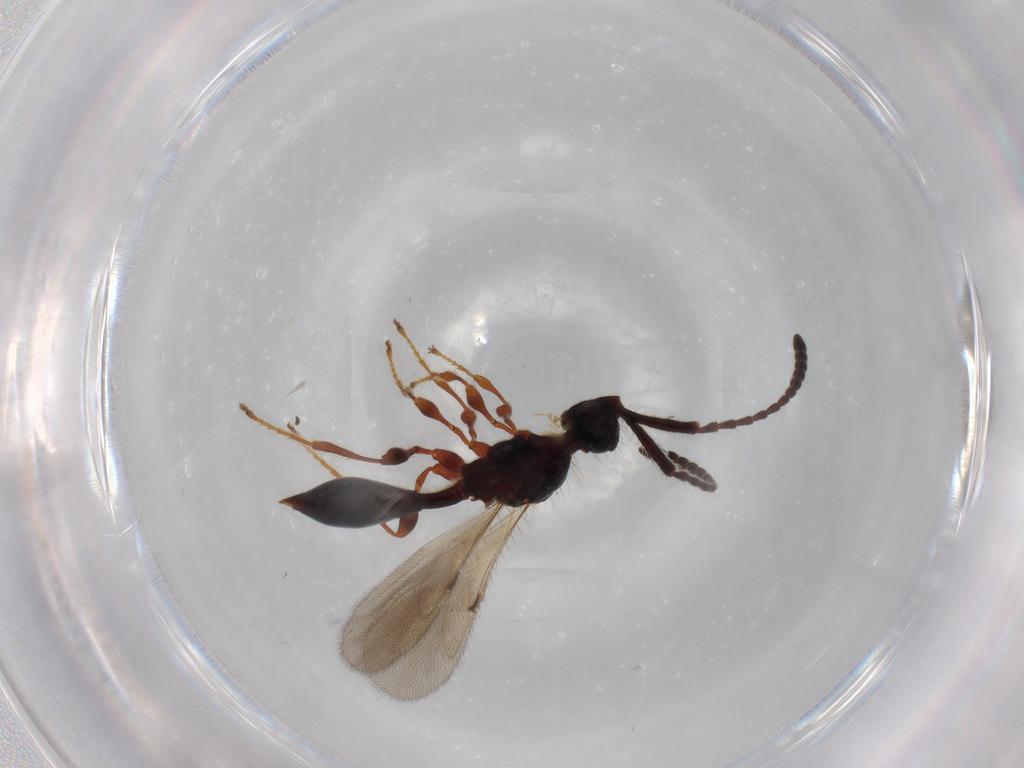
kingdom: Animalia
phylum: Arthropoda
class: Insecta
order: Hymenoptera
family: Diapriidae
